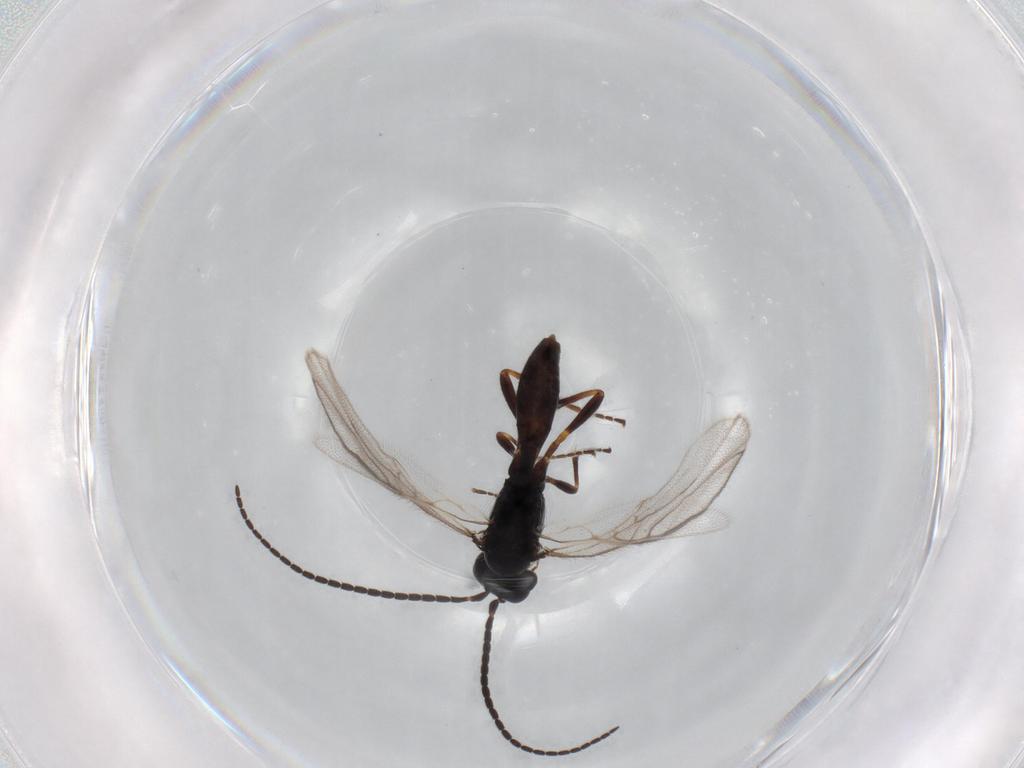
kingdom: Animalia
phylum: Arthropoda
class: Insecta
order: Hymenoptera
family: Braconidae
